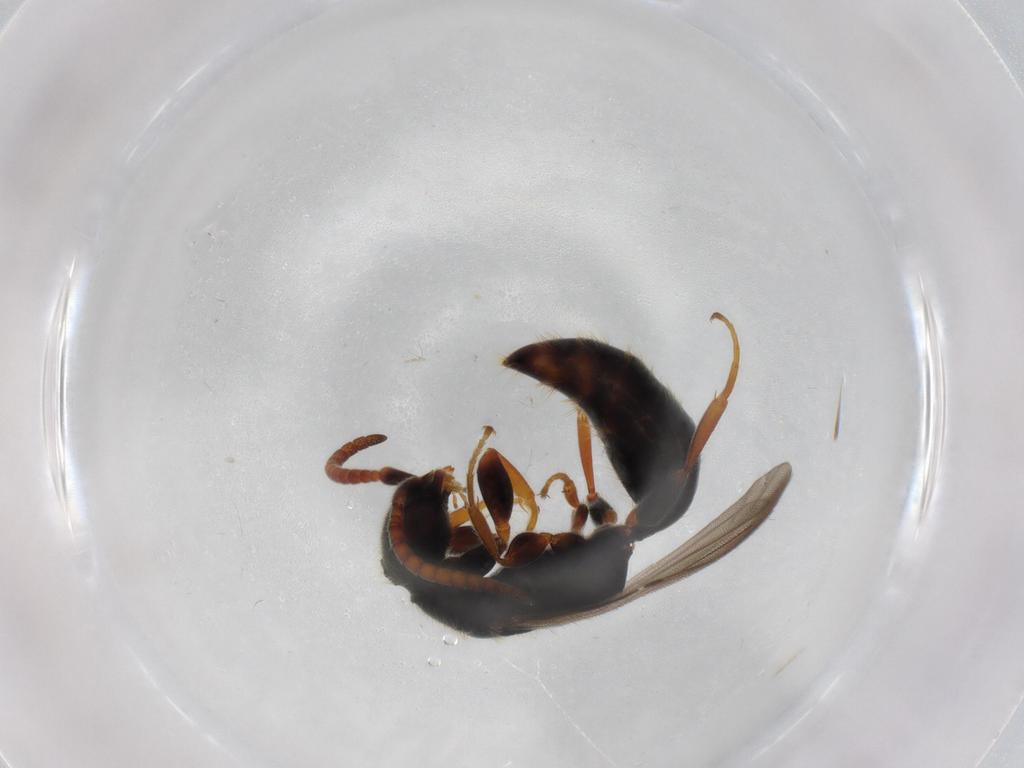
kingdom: Animalia
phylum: Arthropoda
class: Insecta
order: Hymenoptera
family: Bethylidae
